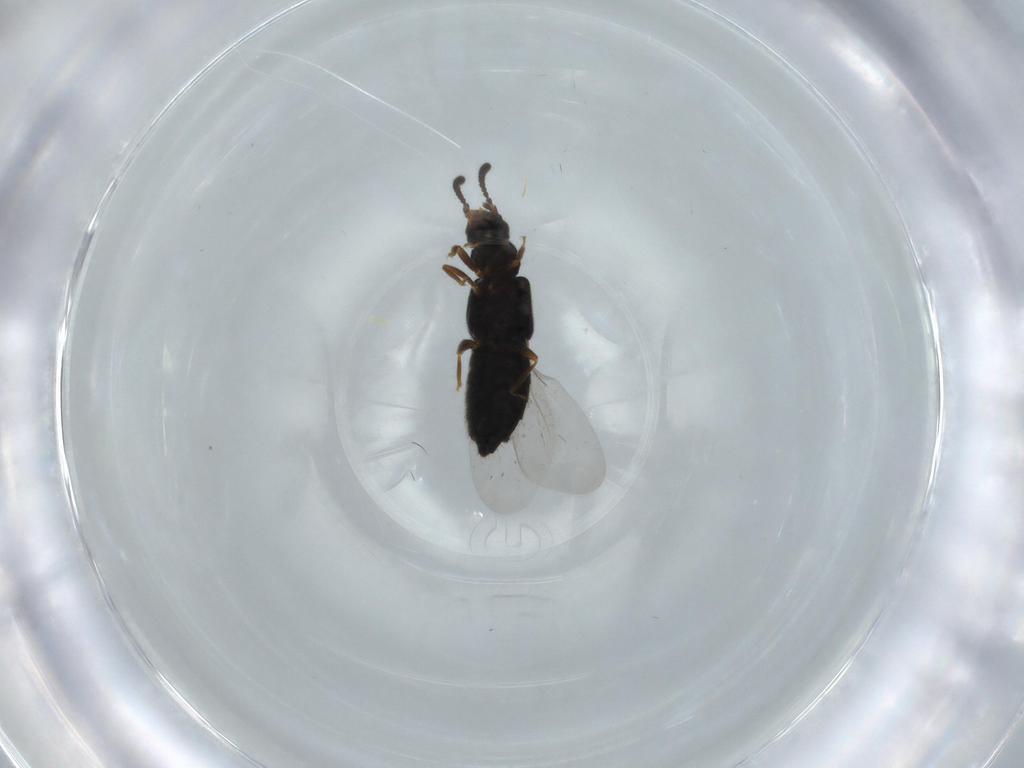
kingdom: Animalia
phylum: Arthropoda
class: Insecta
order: Coleoptera
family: Staphylinidae
